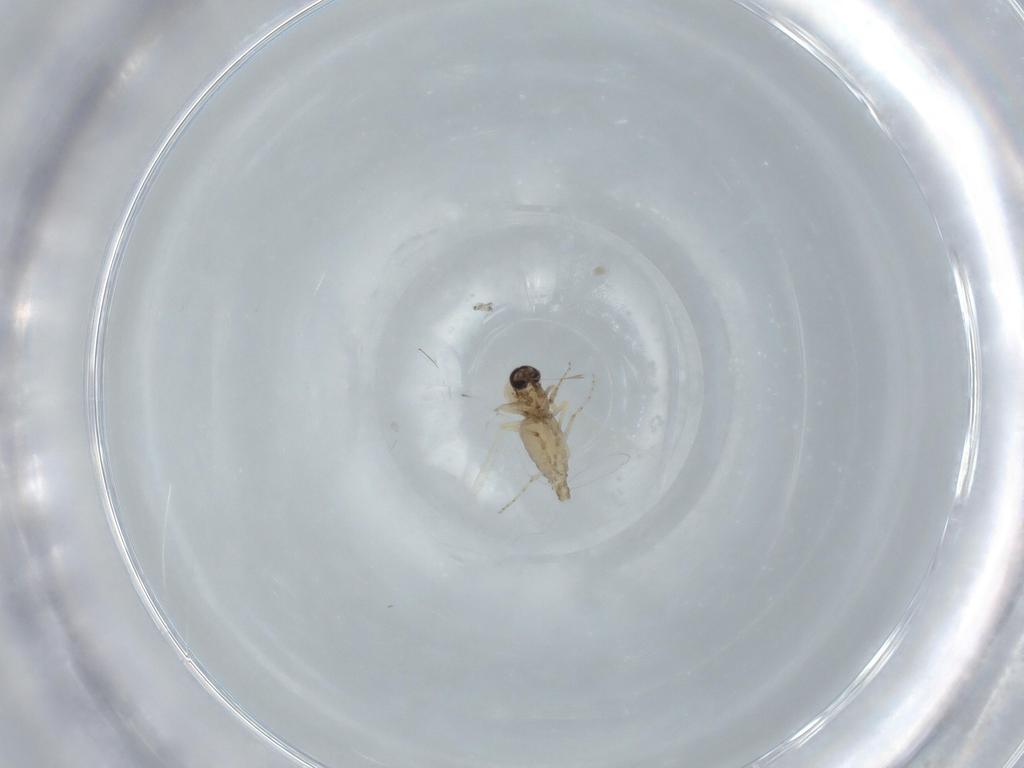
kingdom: Animalia
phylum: Arthropoda
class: Insecta
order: Diptera
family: Ceratopogonidae
